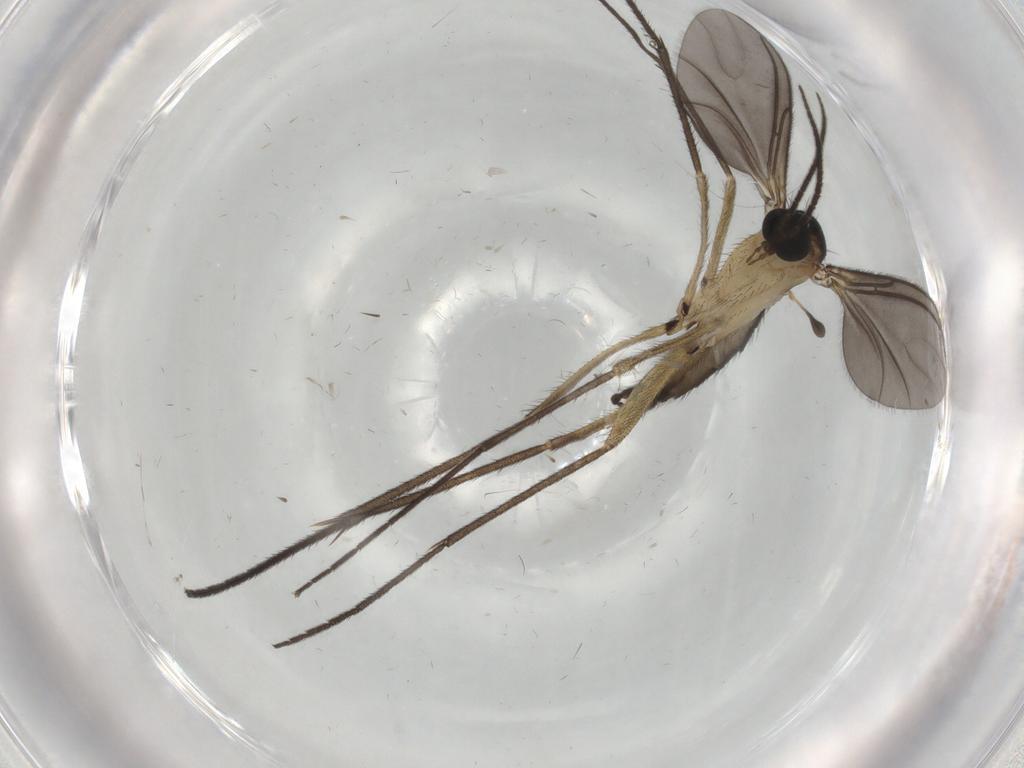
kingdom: Animalia
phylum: Arthropoda
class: Insecta
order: Diptera
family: Sciaridae
